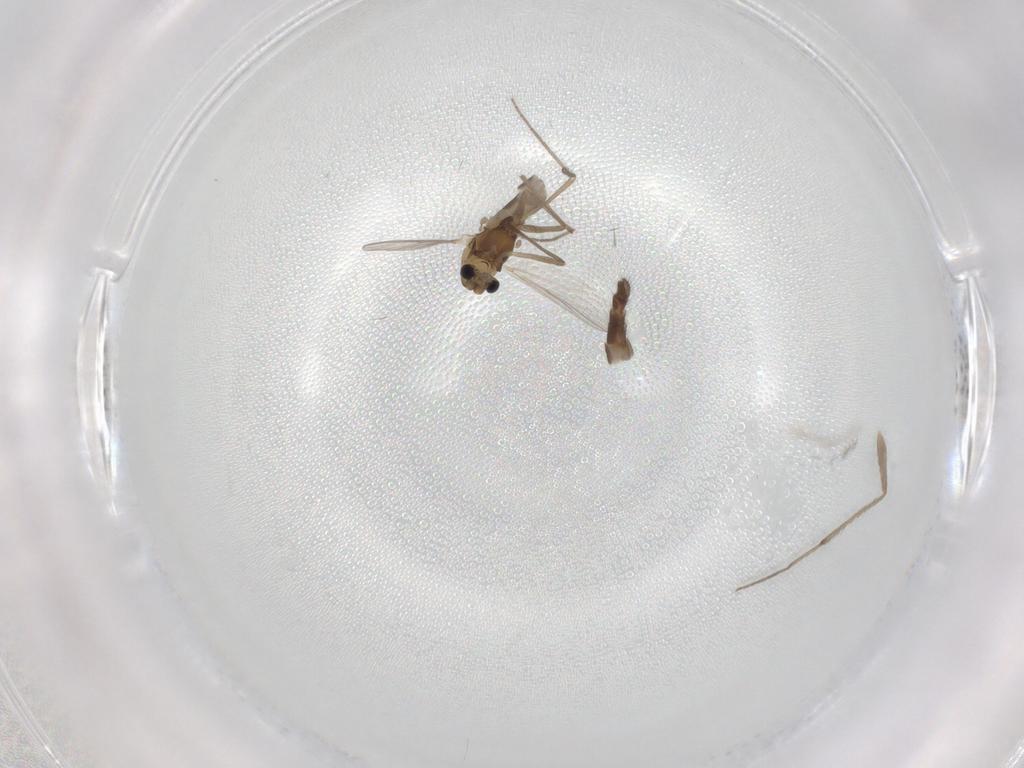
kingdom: Animalia
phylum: Arthropoda
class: Insecta
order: Diptera
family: Chironomidae
